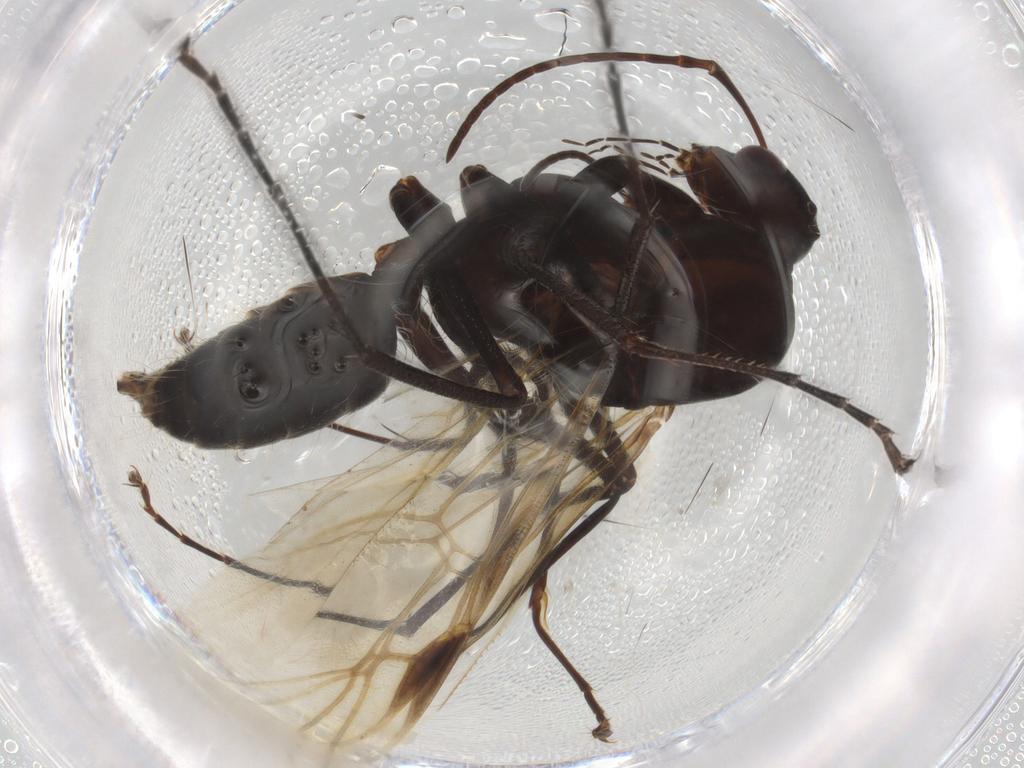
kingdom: Animalia
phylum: Arthropoda
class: Insecta
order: Hymenoptera
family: Formicidae
